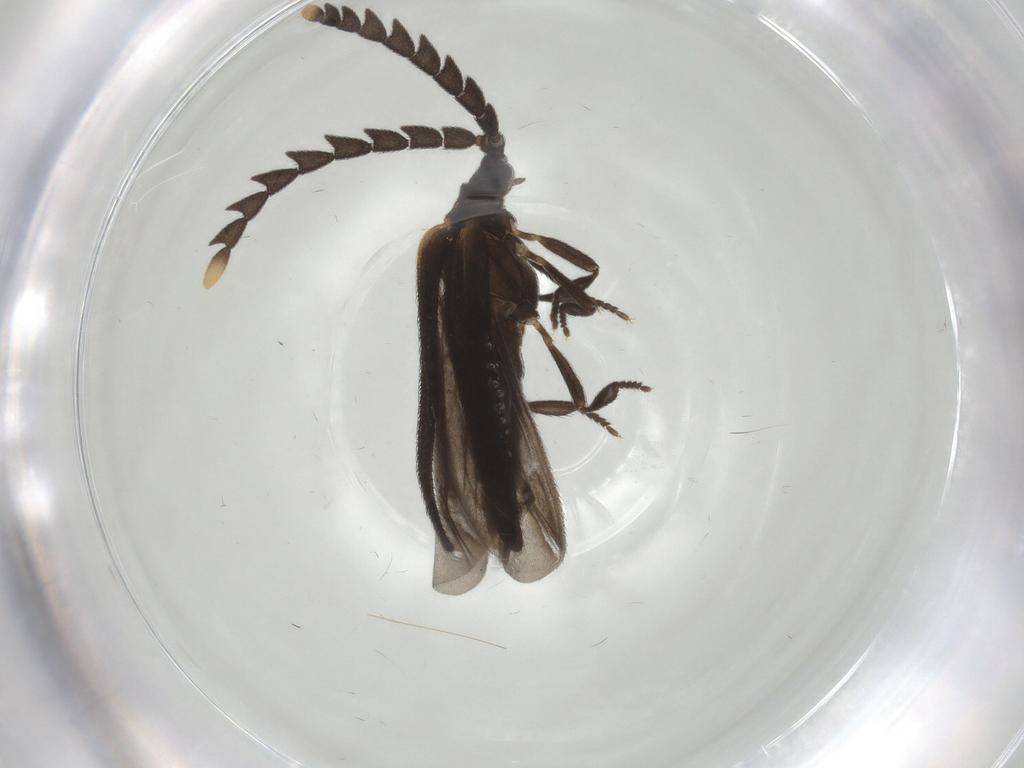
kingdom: Animalia
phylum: Arthropoda
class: Insecta
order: Coleoptera
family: Lycidae
